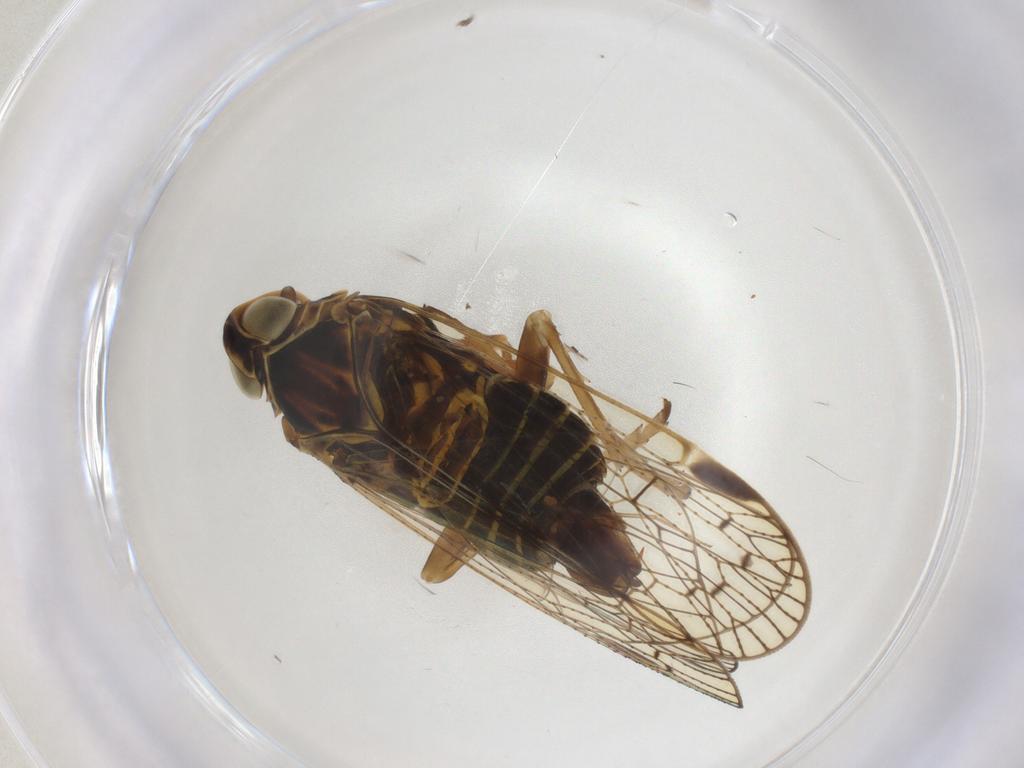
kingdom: Animalia
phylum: Arthropoda
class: Insecta
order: Hemiptera
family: Cixiidae
